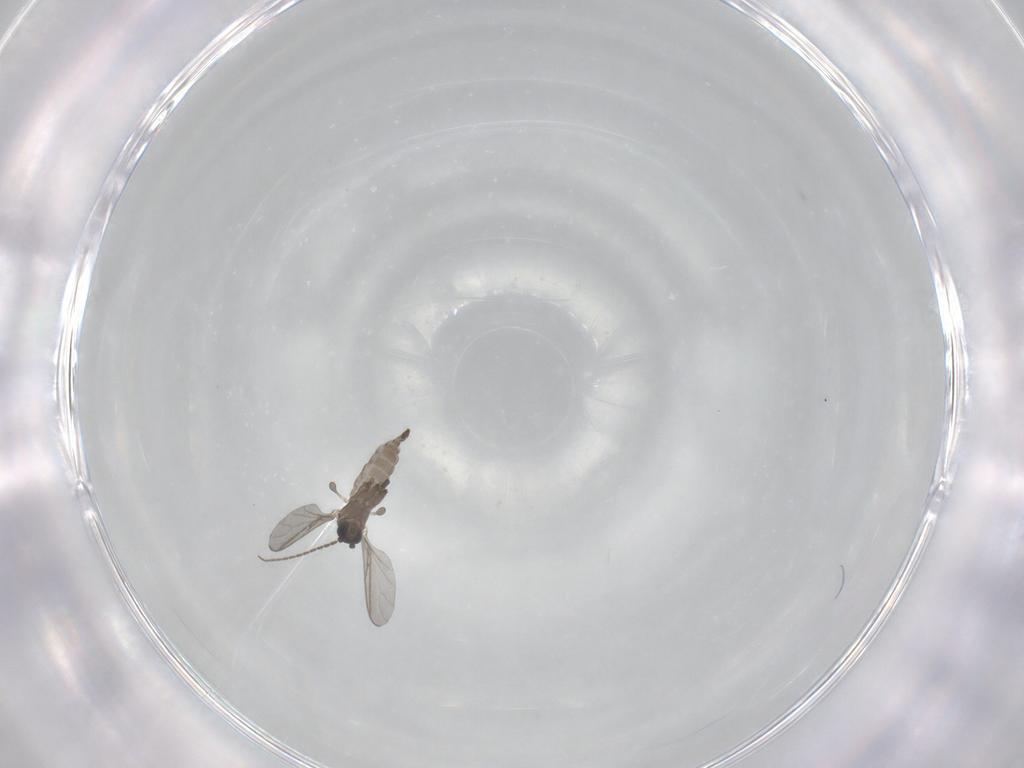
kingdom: Animalia
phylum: Arthropoda
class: Insecta
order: Diptera
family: Sciaridae
